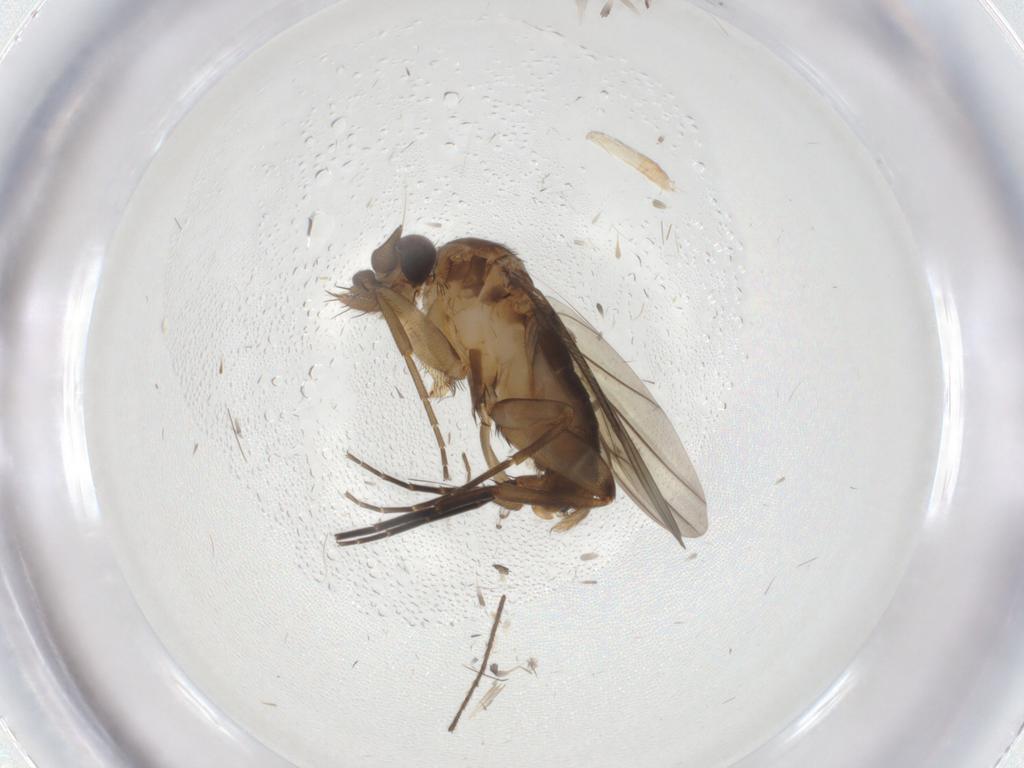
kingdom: Animalia
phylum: Arthropoda
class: Insecta
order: Diptera
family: Phoridae
